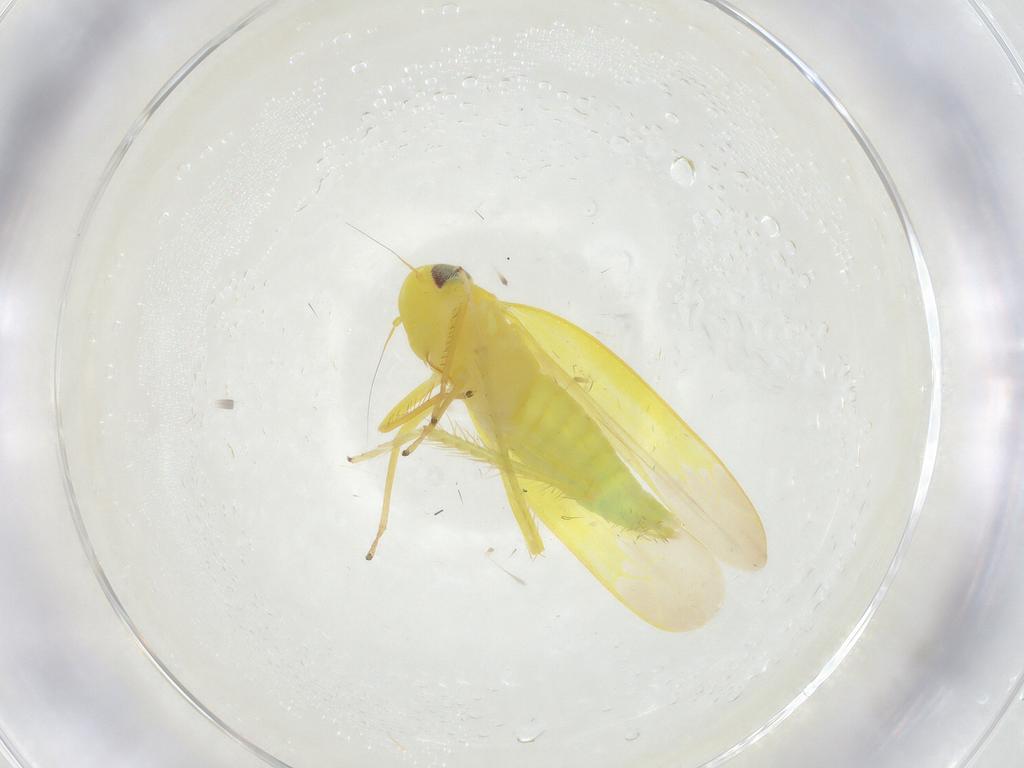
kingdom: Animalia
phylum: Arthropoda
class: Insecta
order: Hemiptera
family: Cicadellidae
